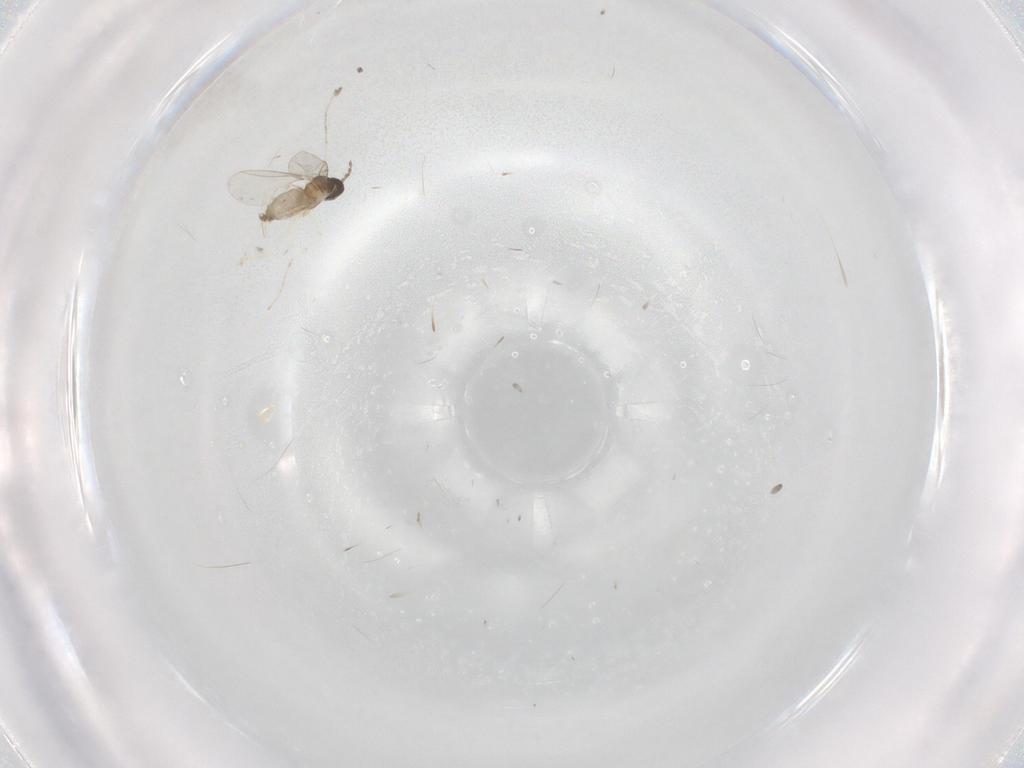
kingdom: Animalia
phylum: Arthropoda
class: Insecta
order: Diptera
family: Cecidomyiidae
